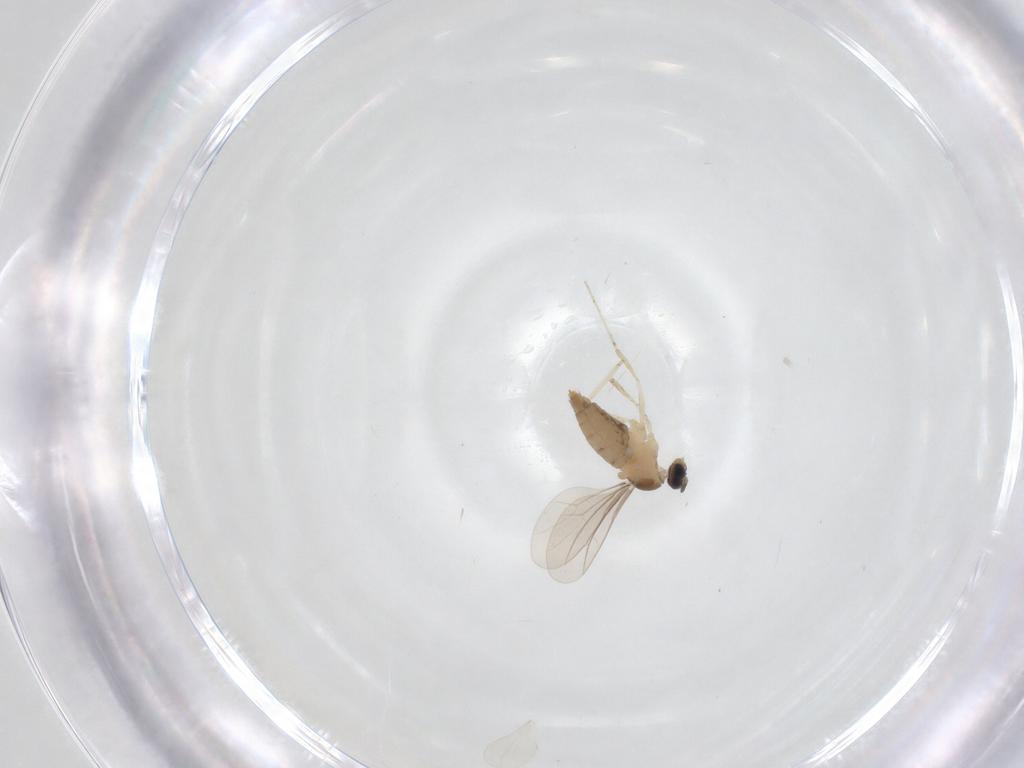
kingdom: Animalia
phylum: Arthropoda
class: Insecta
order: Diptera
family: Cecidomyiidae
